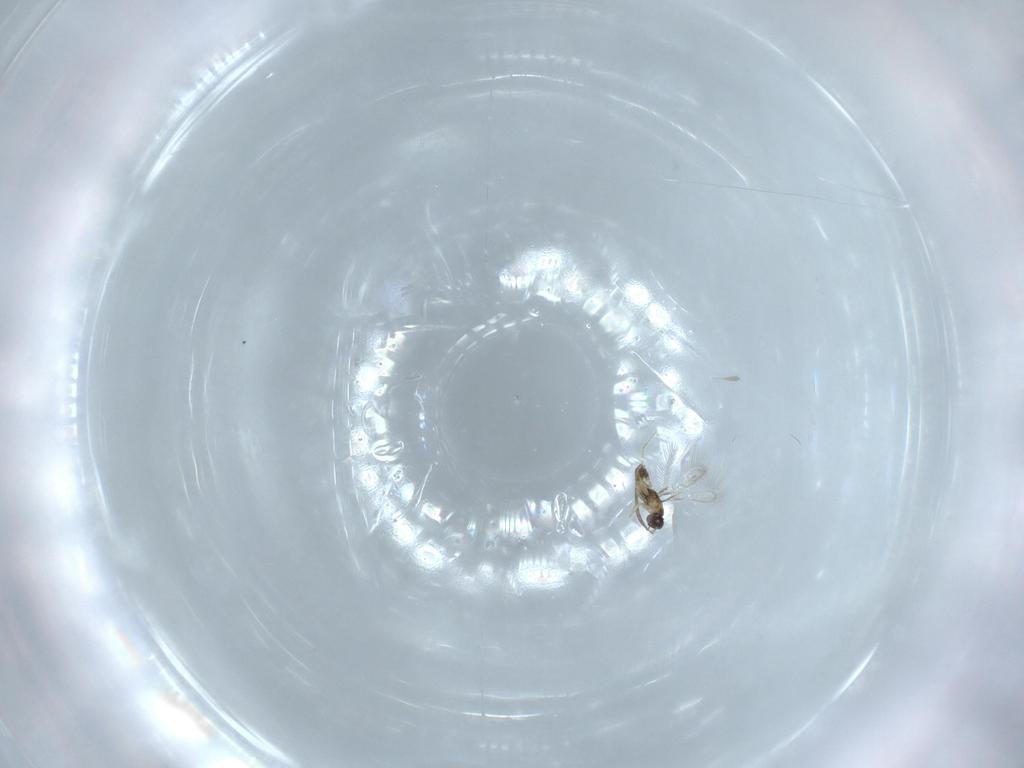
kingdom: Animalia
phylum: Arthropoda
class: Insecta
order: Hymenoptera
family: Mymaridae
